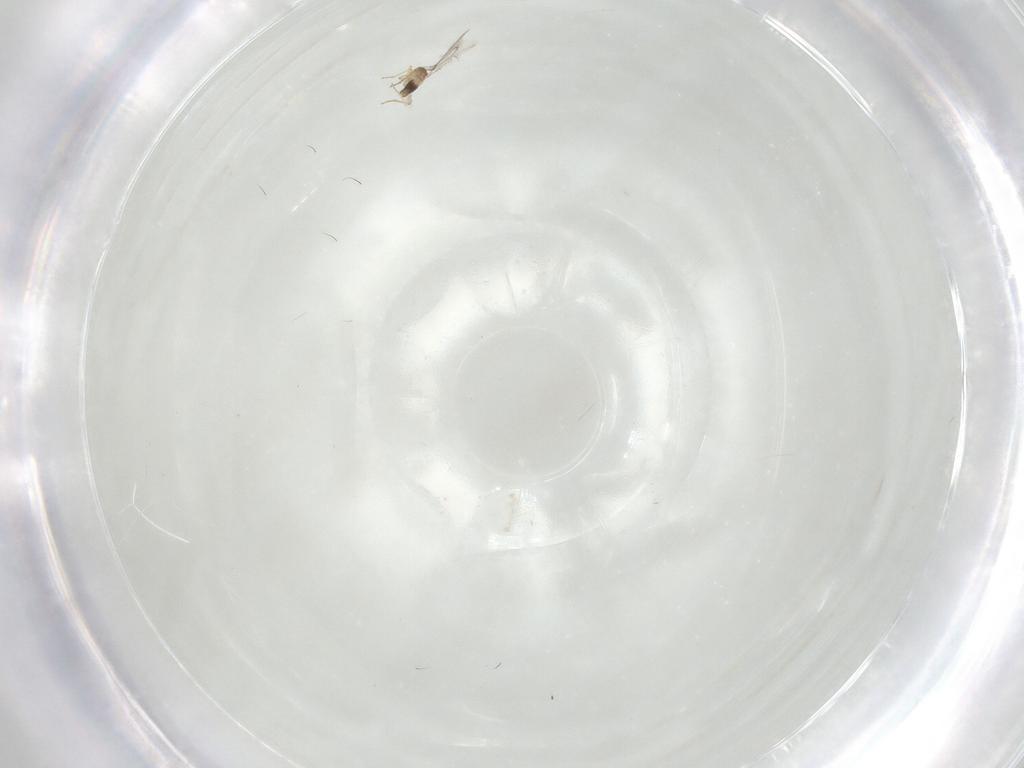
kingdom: Animalia
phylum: Arthropoda
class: Insecta
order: Hymenoptera
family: Mymaridae
